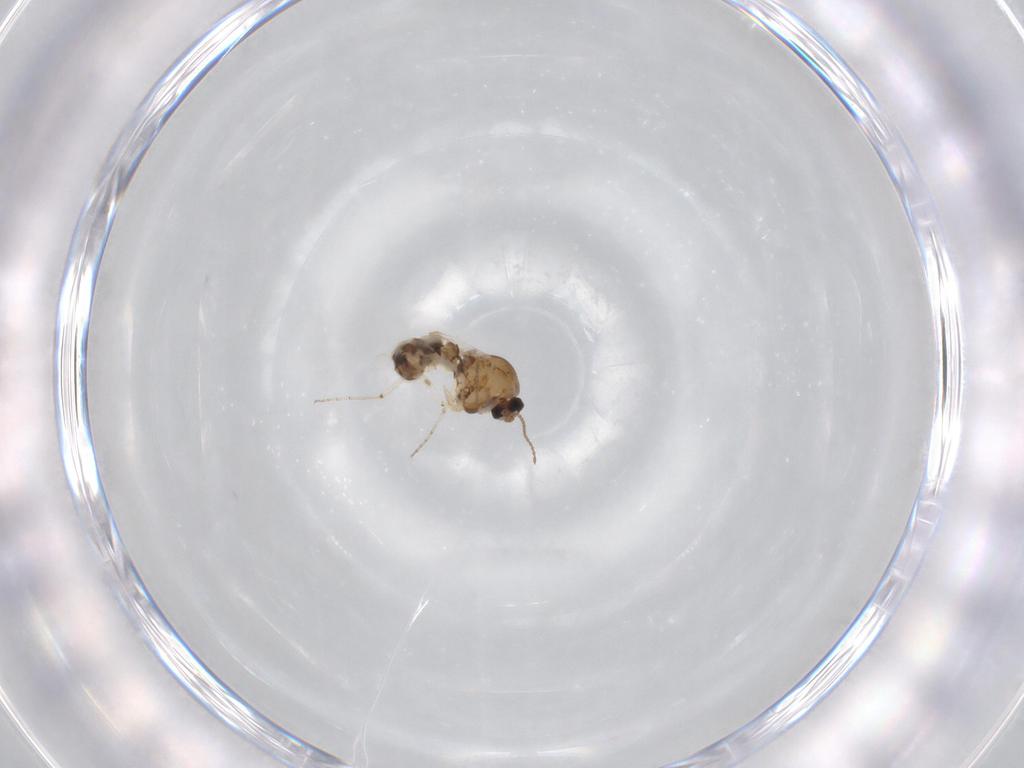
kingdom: Animalia
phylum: Arthropoda
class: Insecta
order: Diptera
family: Ceratopogonidae
